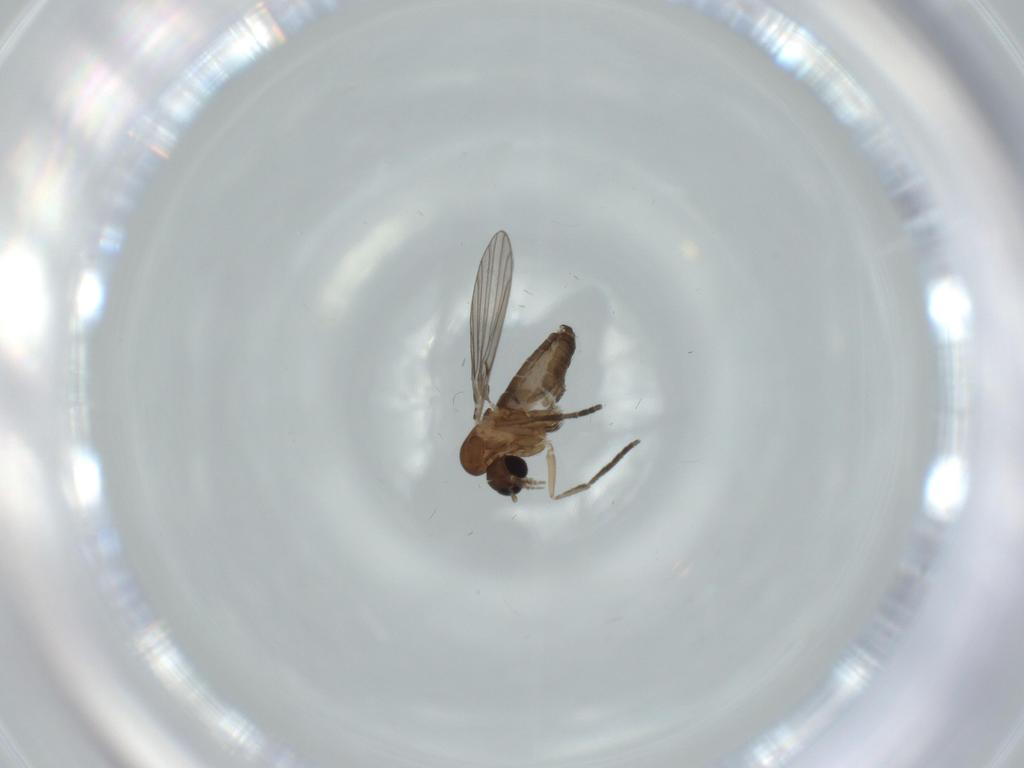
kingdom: Animalia
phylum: Arthropoda
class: Insecta
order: Diptera
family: Psychodidae
